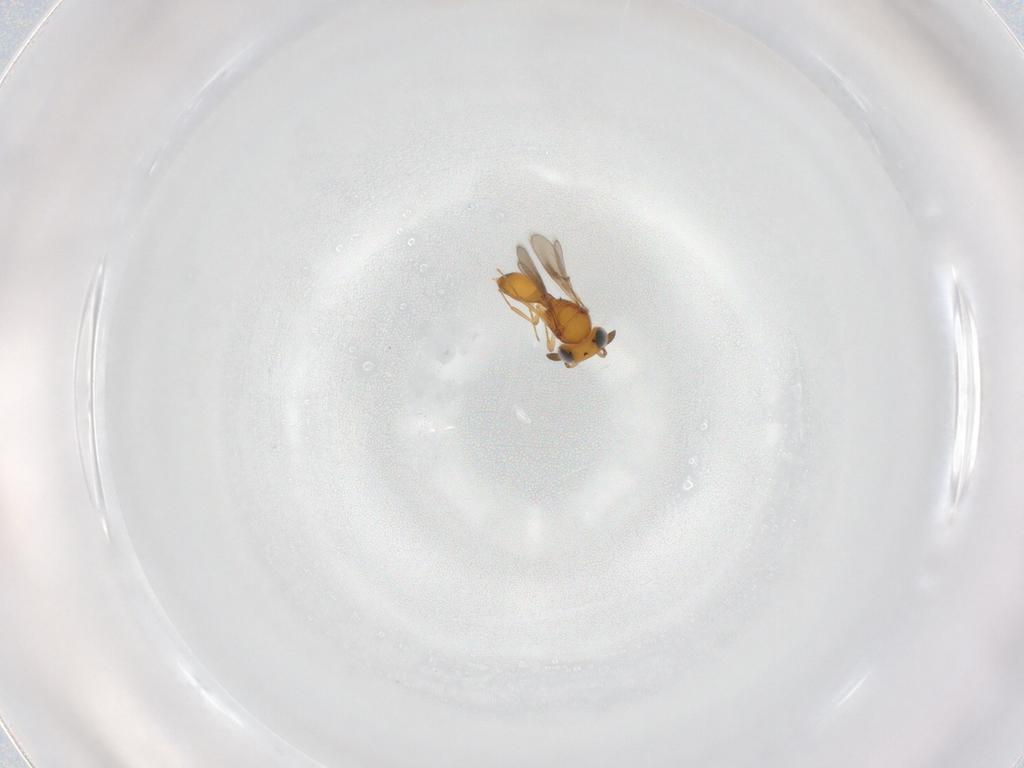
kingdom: Animalia
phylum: Arthropoda
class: Insecta
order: Hymenoptera
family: Scelionidae
